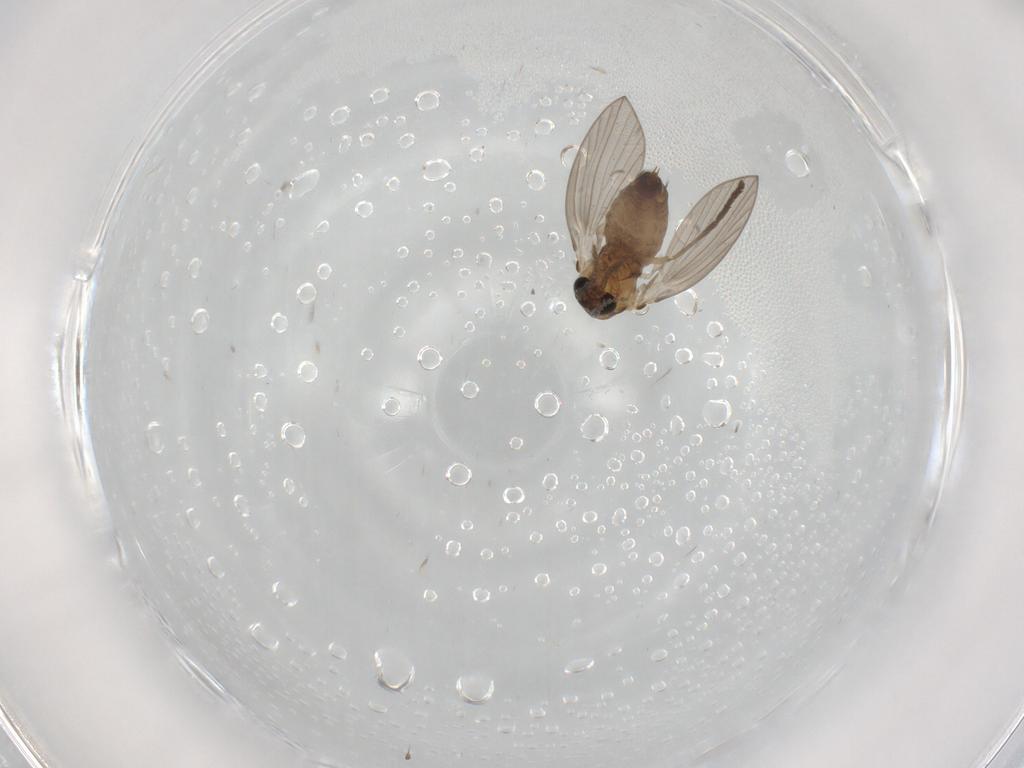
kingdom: Animalia
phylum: Arthropoda
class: Insecta
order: Diptera
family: Psychodidae
